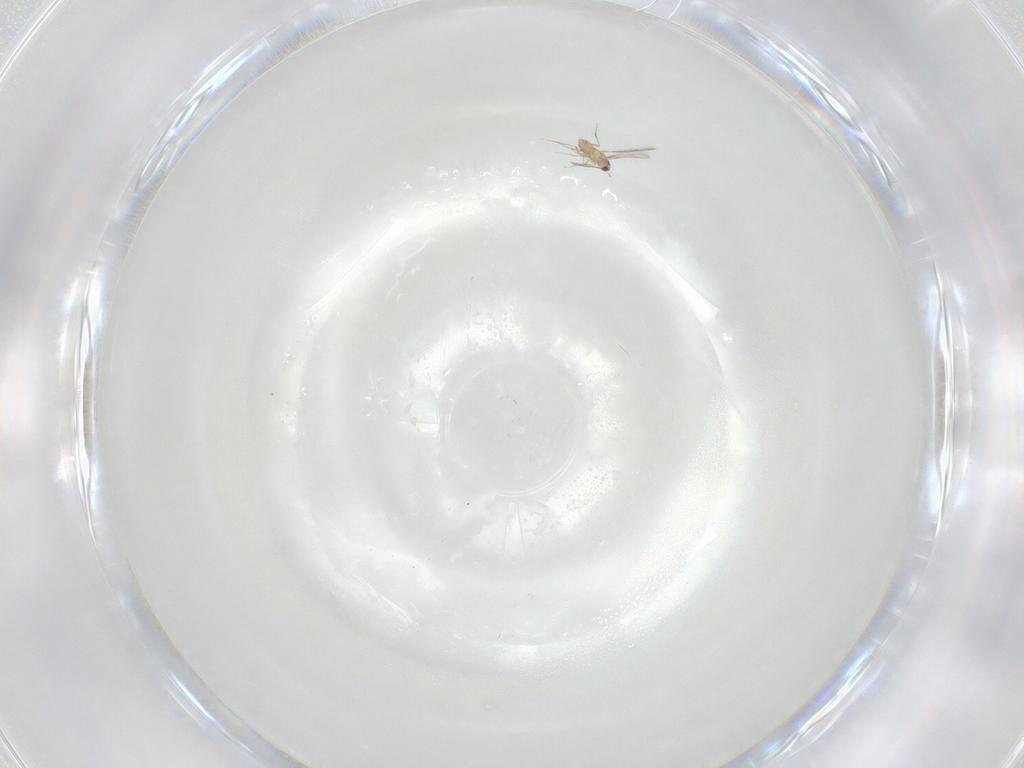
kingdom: Animalia
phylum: Arthropoda
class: Insecta
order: Hymenoptera
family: Mymaridae
